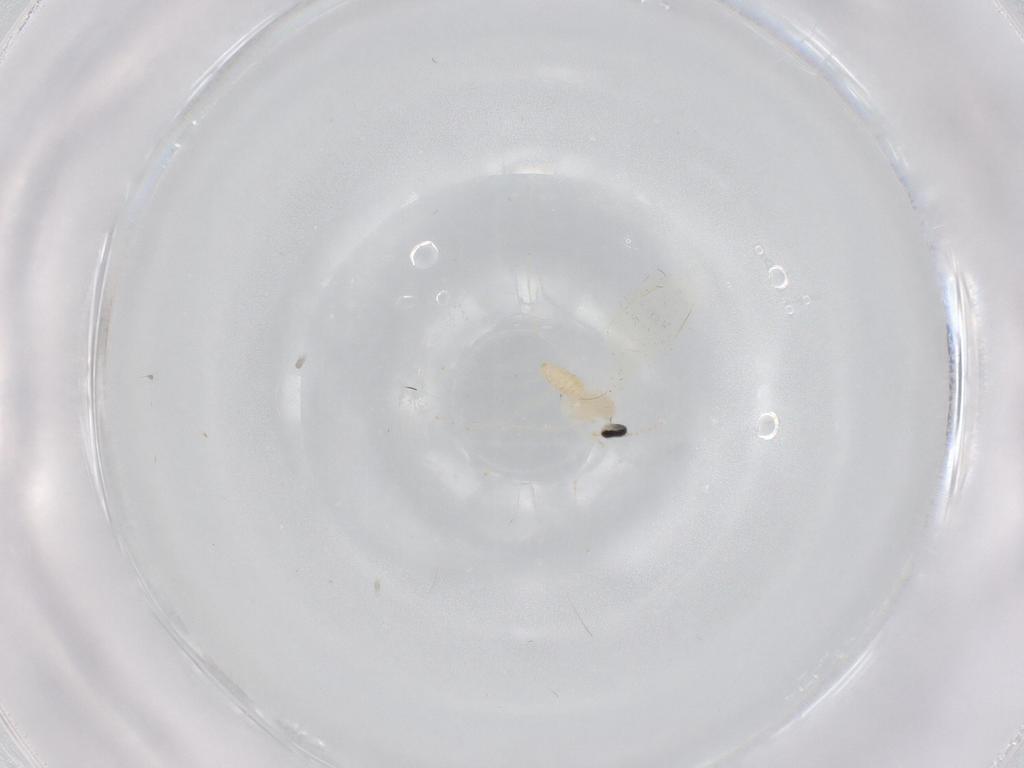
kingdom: Animalia
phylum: Arthropoda
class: Insecta
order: Diptera
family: Cecidomyiidae
